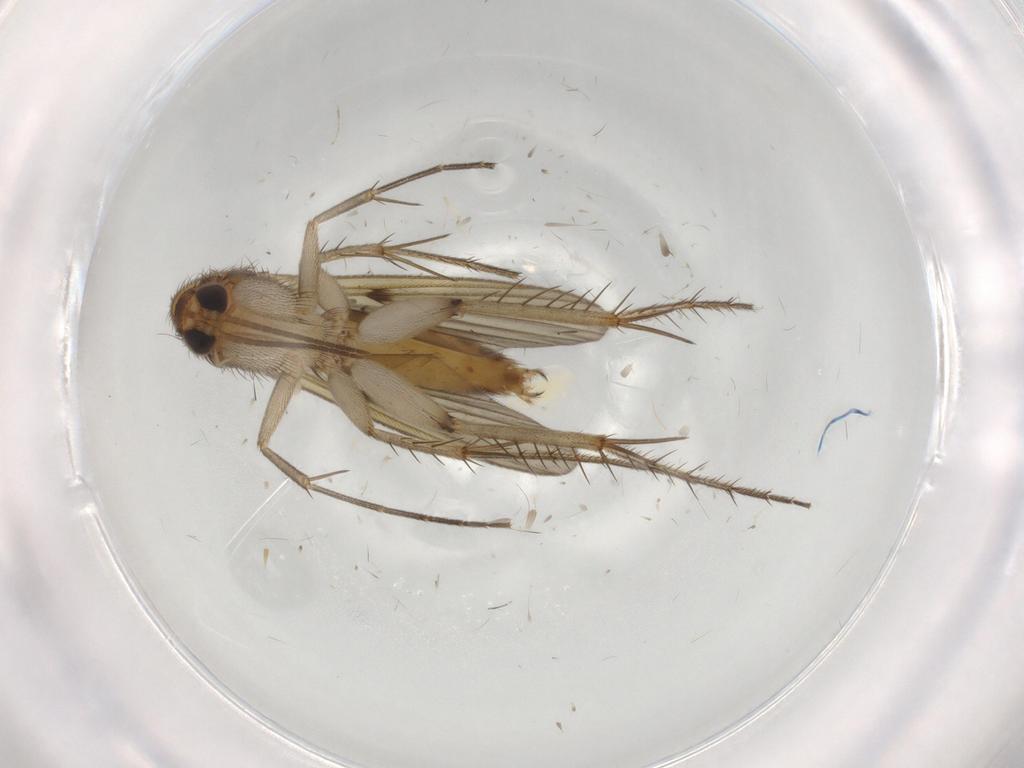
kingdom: Animalia
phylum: Arthropoda
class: Insecta
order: Diptera
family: Mycetophilidae
